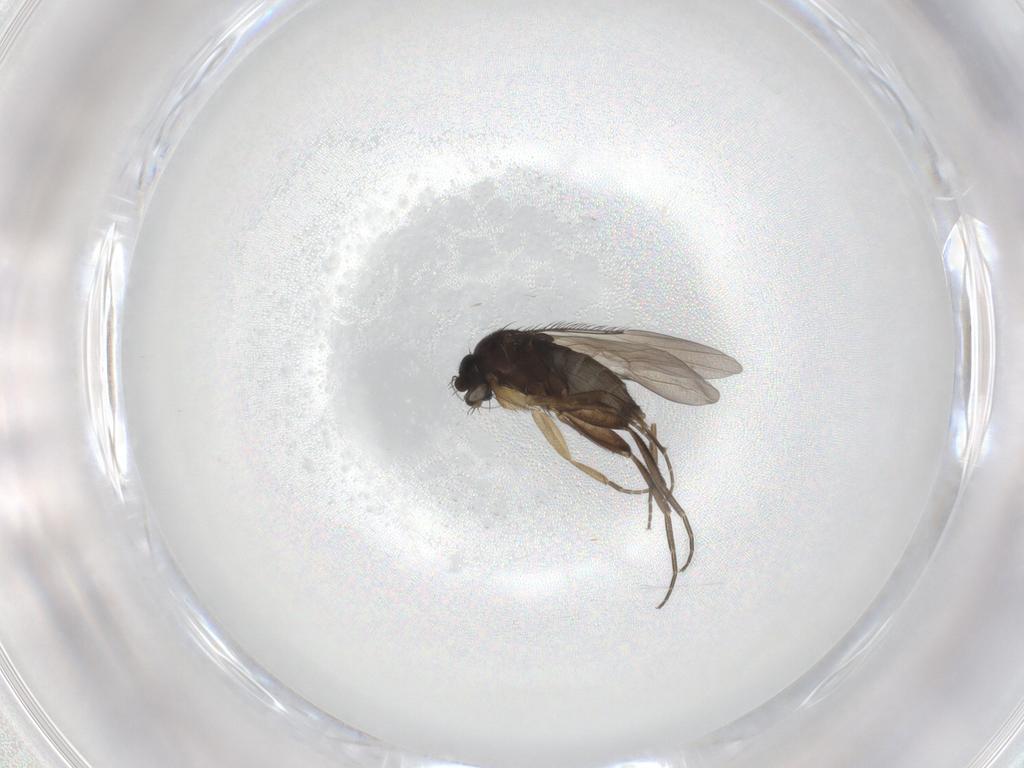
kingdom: Animalia
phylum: Arthropoda
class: Insecta
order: Diptera
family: Phoridae
